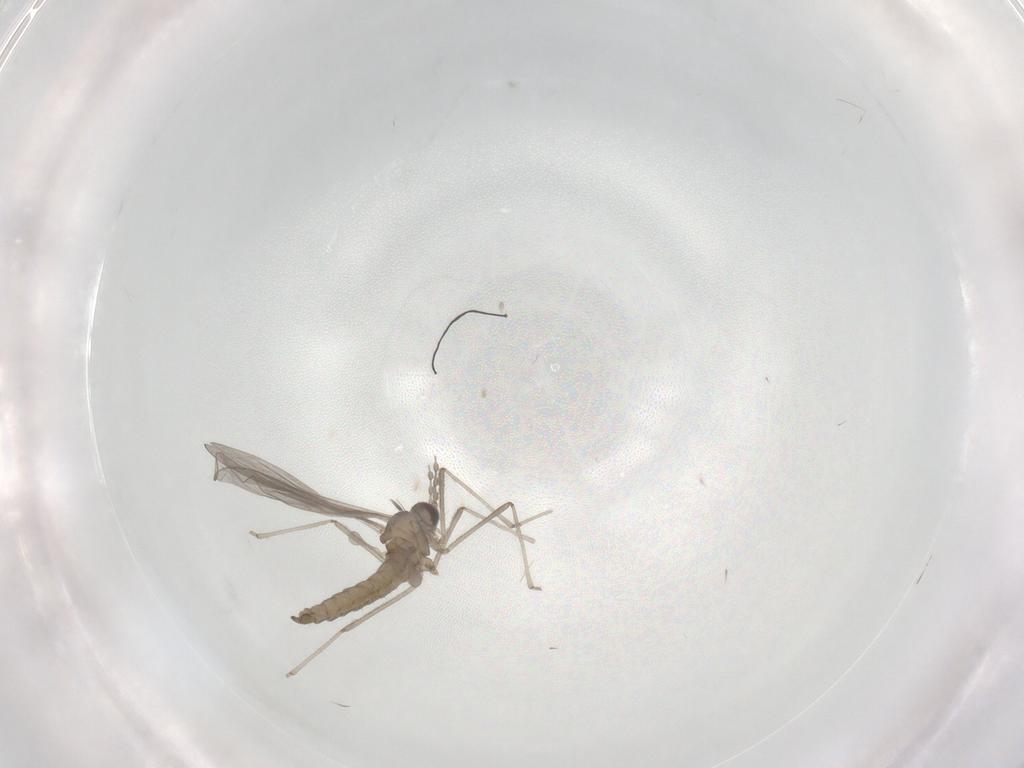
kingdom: Animalia
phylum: Arthropoda
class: Insecta
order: Diptera
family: Cecidomyiidae
